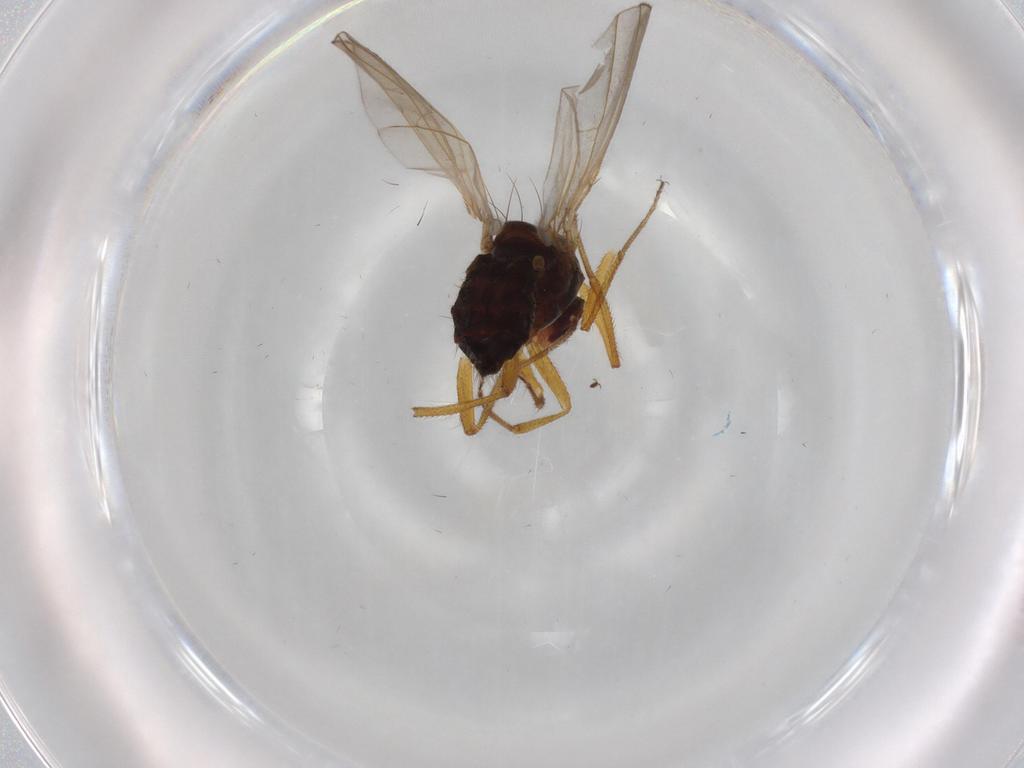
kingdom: Animalia
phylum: Arthropoda
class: Insecta
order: Diptera
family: Drosophilidae
